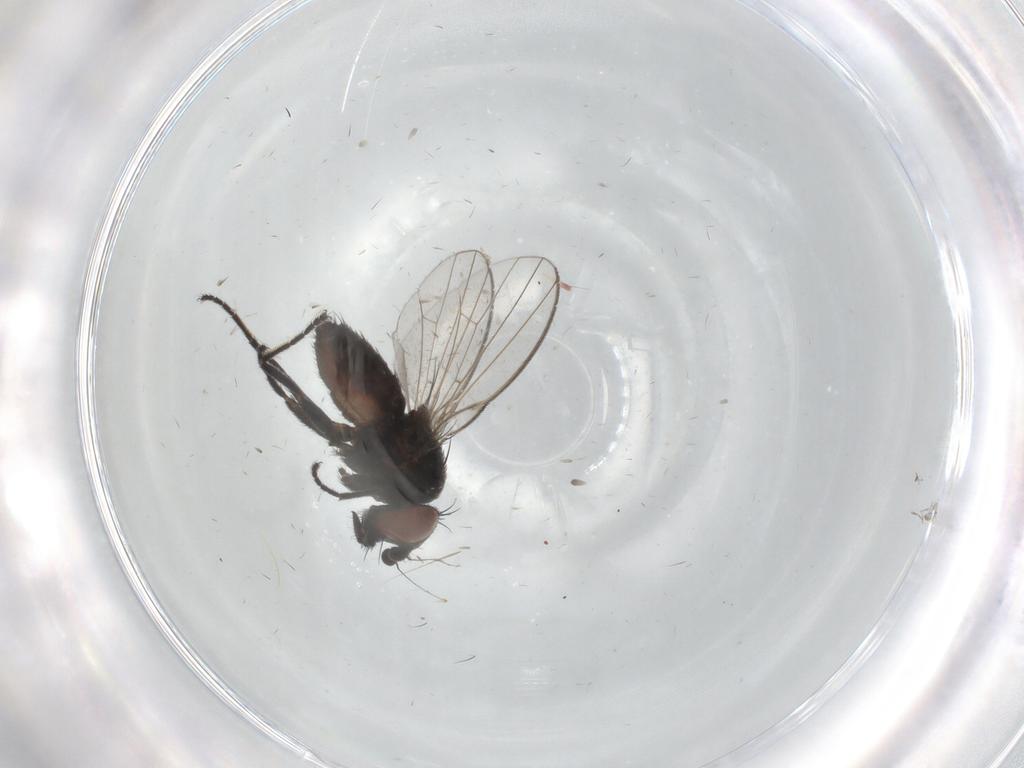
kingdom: Animalia
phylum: Arthropoda
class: Insecta
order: Diptera
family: Milichiidae
